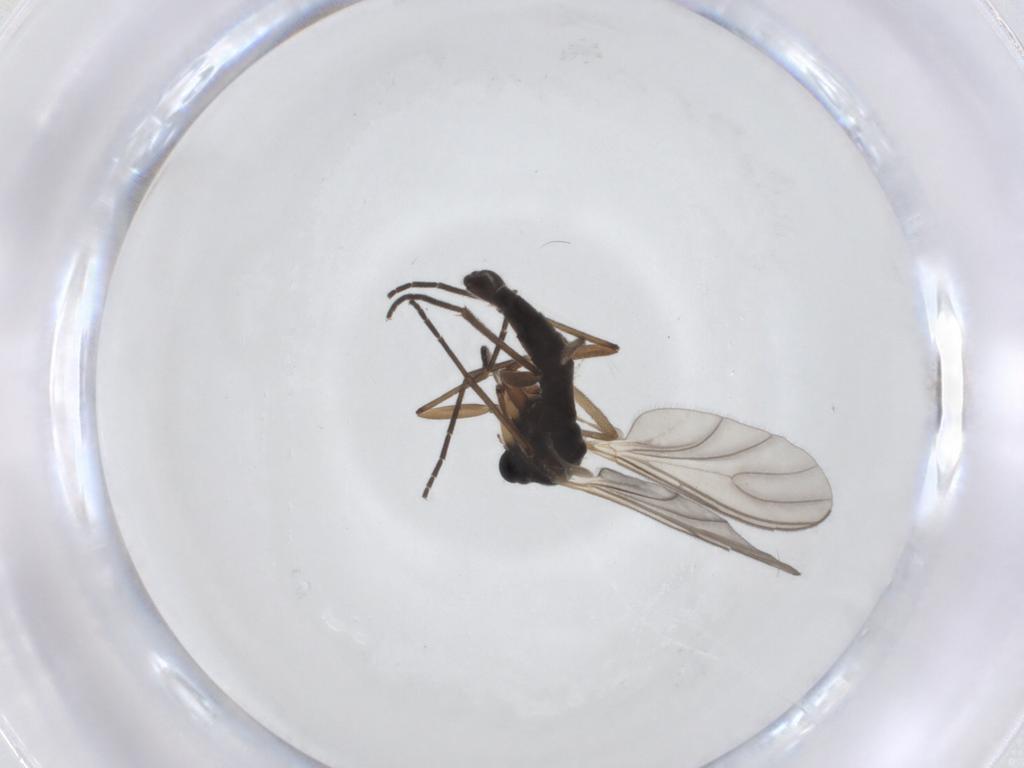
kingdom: Animalia
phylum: Arthropoda
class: Insecta
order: Diptera
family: Sciaridae
